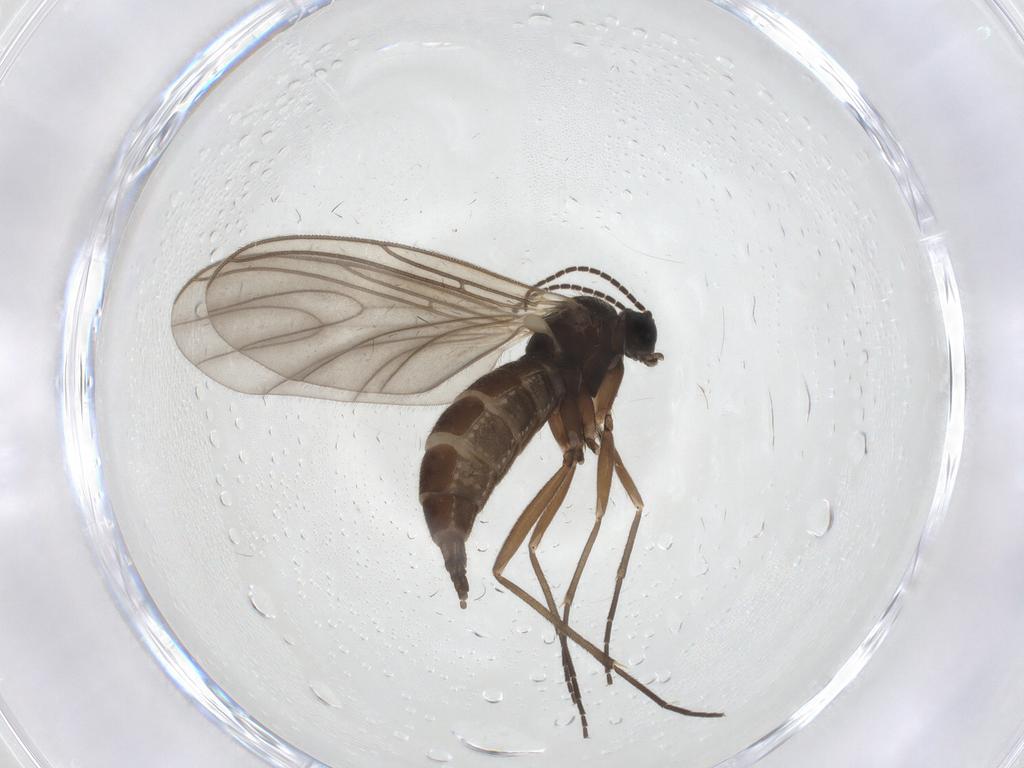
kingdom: Animalia
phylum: Arthropoda
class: Insecta
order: Diptera
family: Sciaridae
